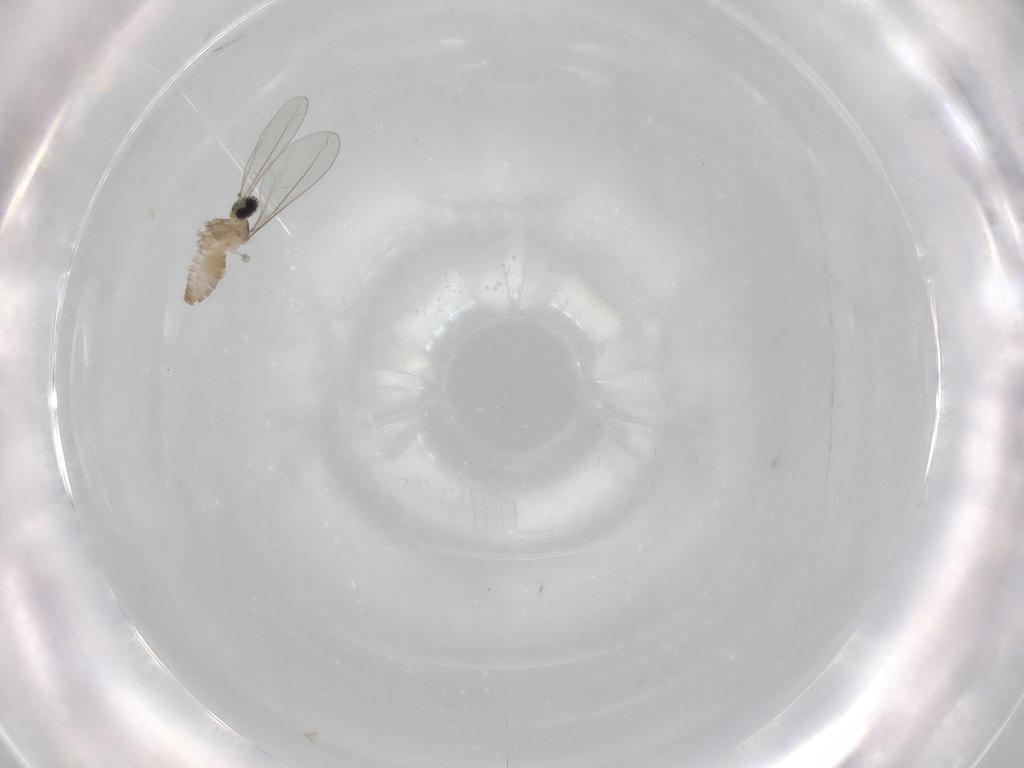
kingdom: Animalia
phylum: Arthropoda
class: Insecta
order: Diptera
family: Cecidomyiidae
